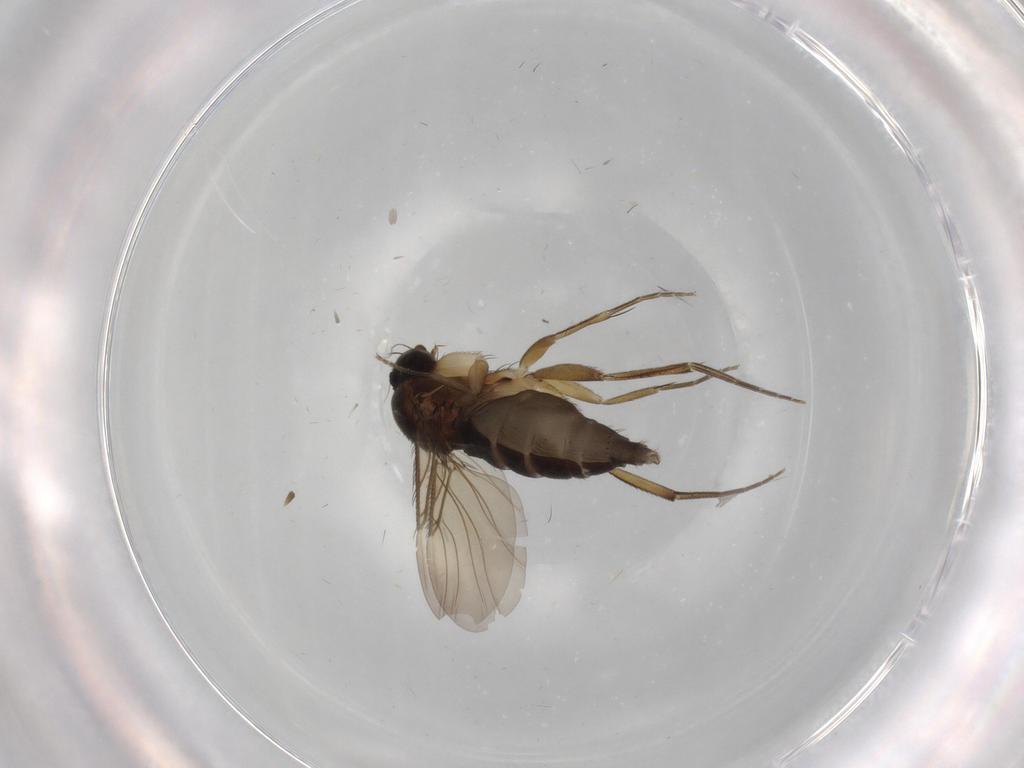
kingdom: Animalia
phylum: Arthropoda
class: Insecta
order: Diptera
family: Phoridae
